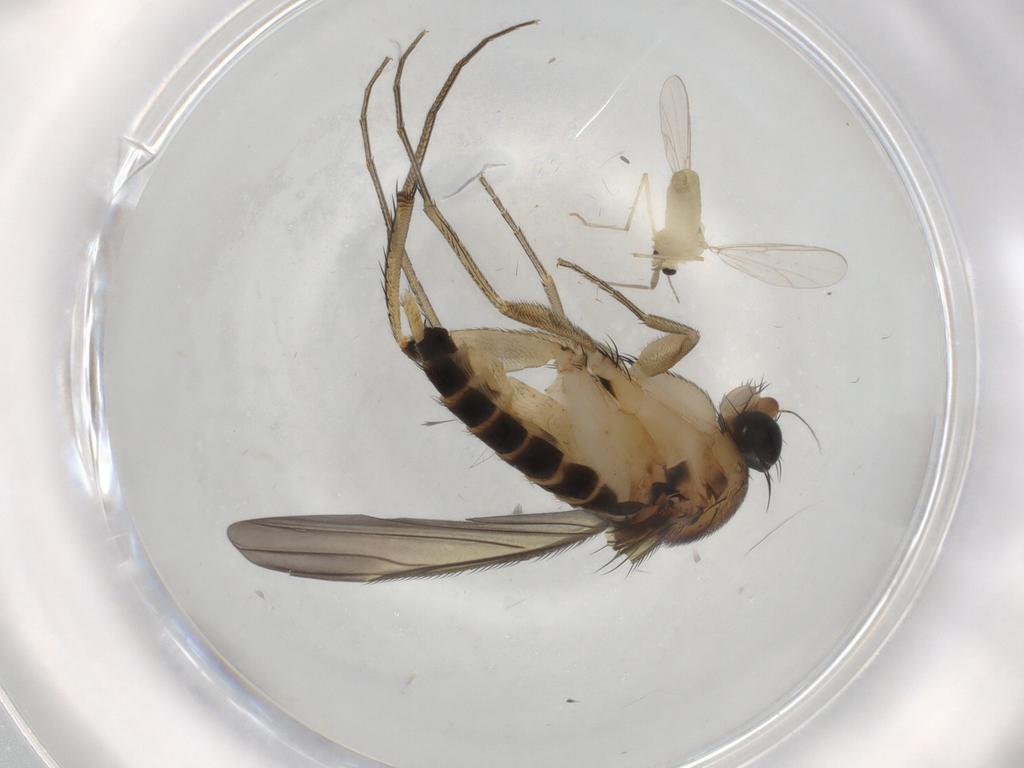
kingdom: Animalia
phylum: Arthropoda
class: Insecta
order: Diptera
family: Phoridae
